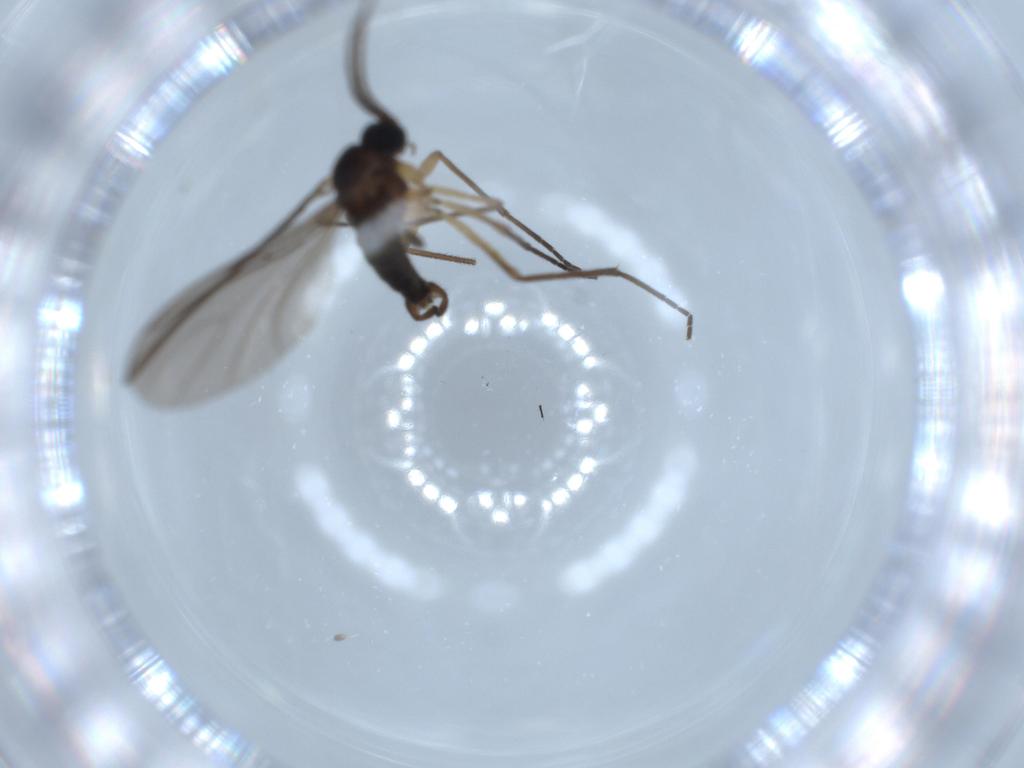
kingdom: Animalia
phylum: Arthropoda
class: Insecta
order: Diptera
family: Sciaridae
